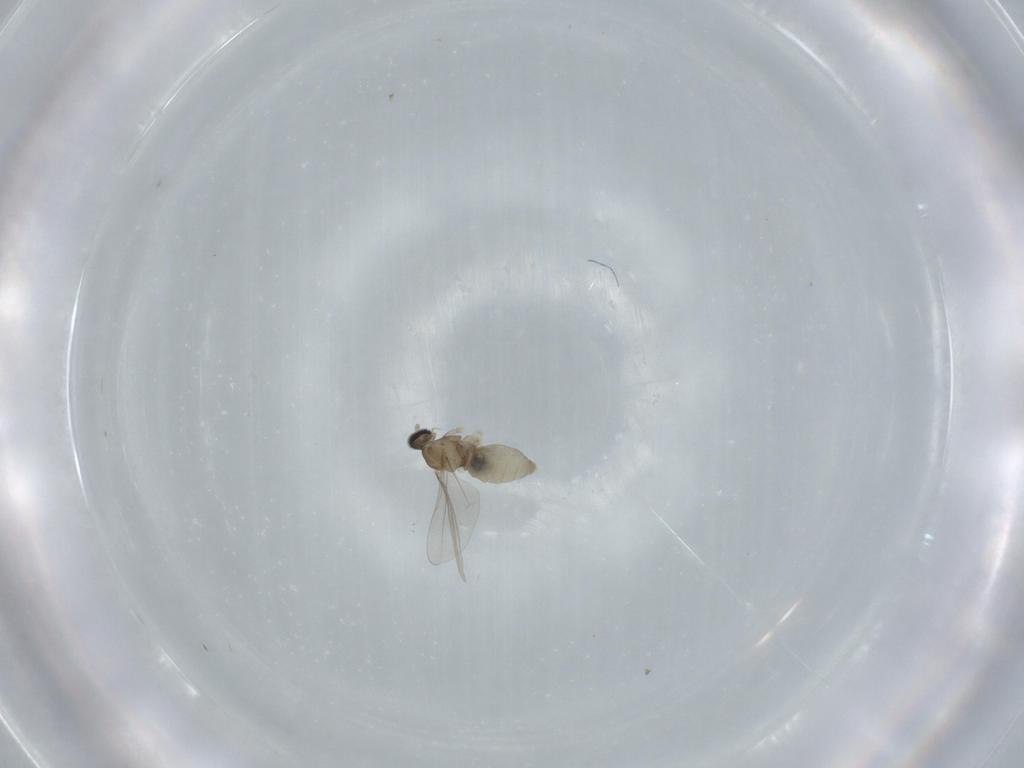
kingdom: Animalia
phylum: Arthropoda
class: Insecta
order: Diptera
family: Cecidomyiidae
